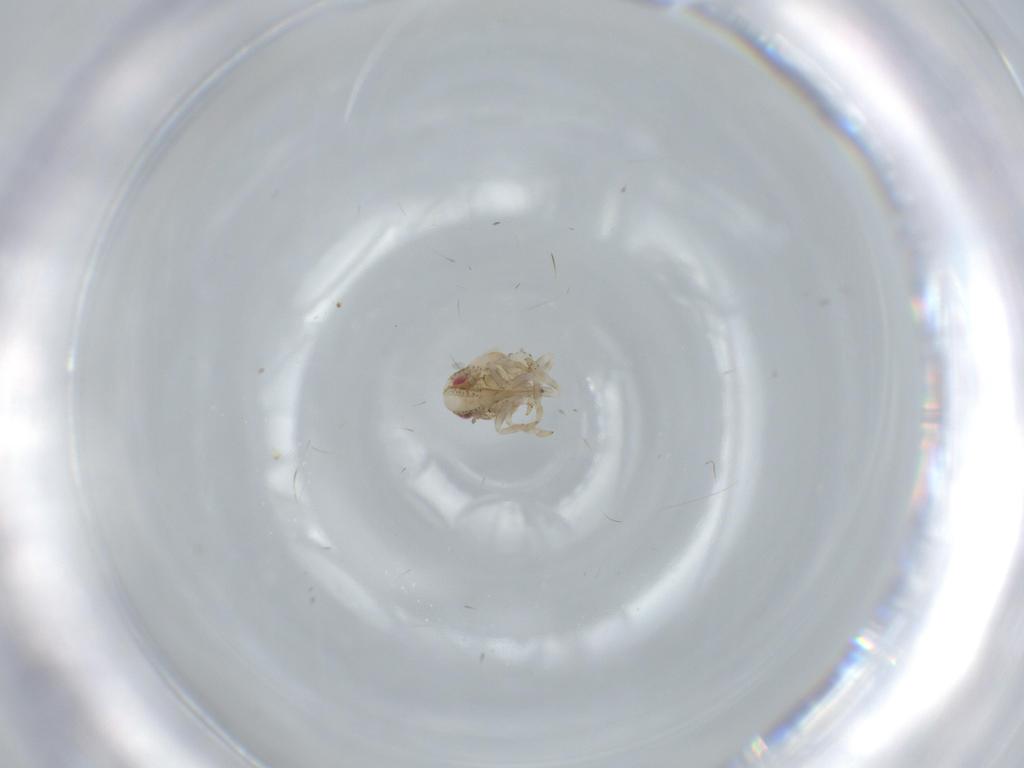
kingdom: Animalia
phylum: Arthropoda
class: Insecta
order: Hemiptera
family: Acanaloniidae
